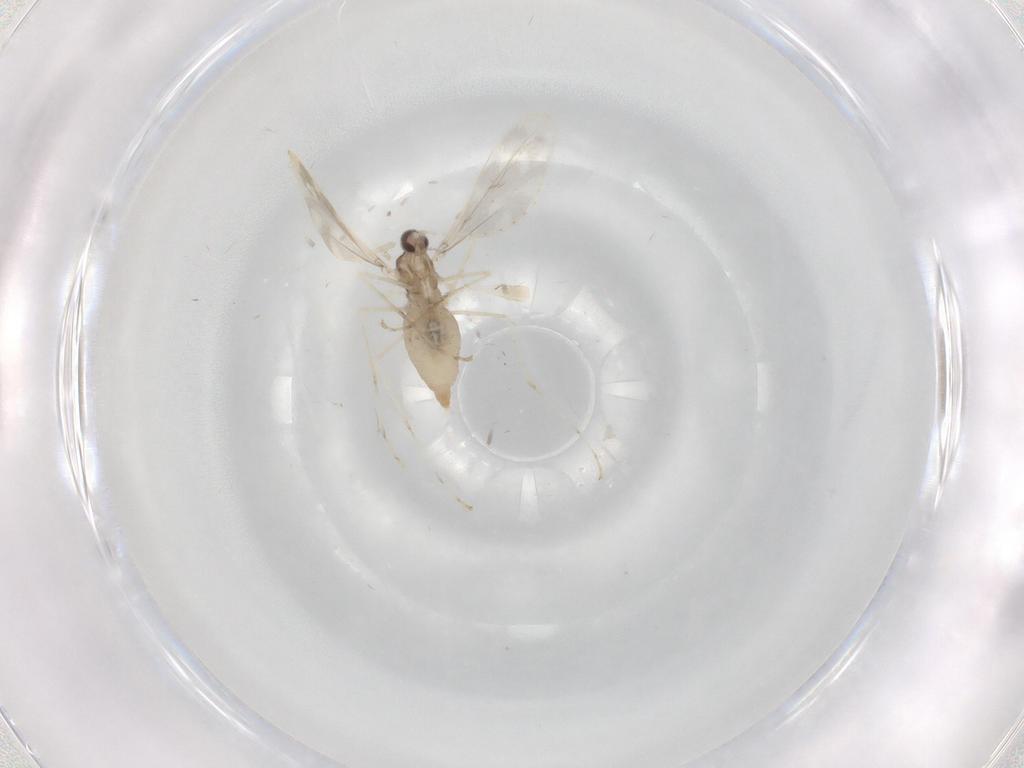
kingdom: Animalia
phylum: Arthropoda
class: Insecta
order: Diptera
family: Cecidomyiidae
